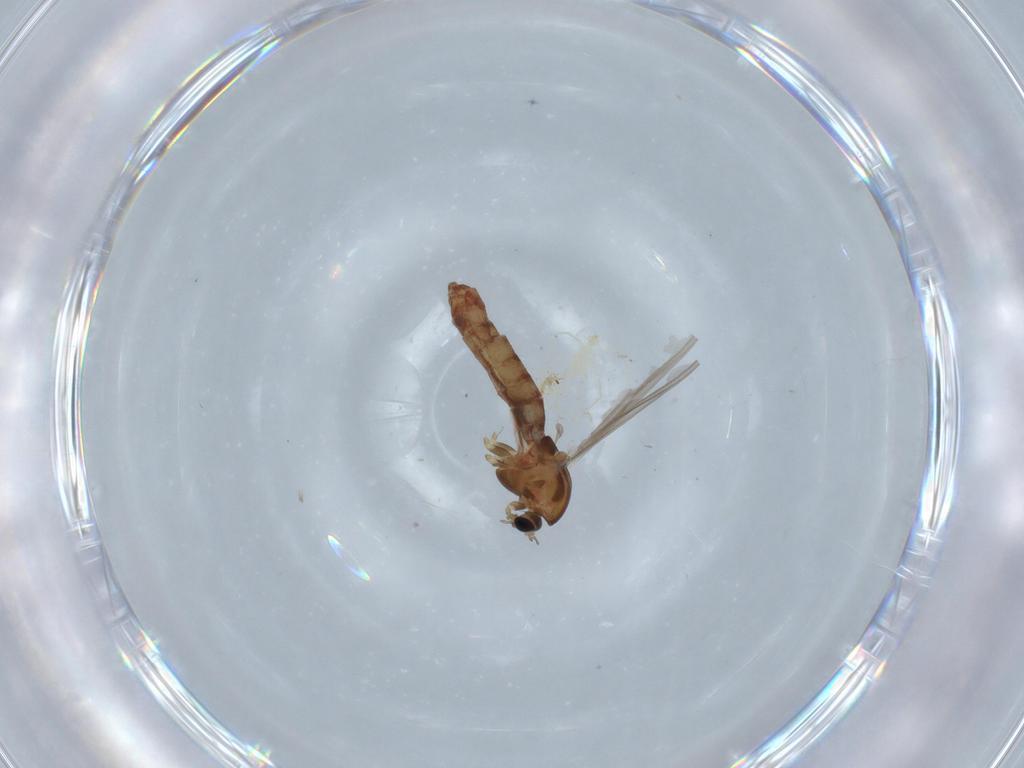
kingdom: Animalia
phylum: Arthropoda
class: Insecta
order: Diptera
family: Chironomidae
